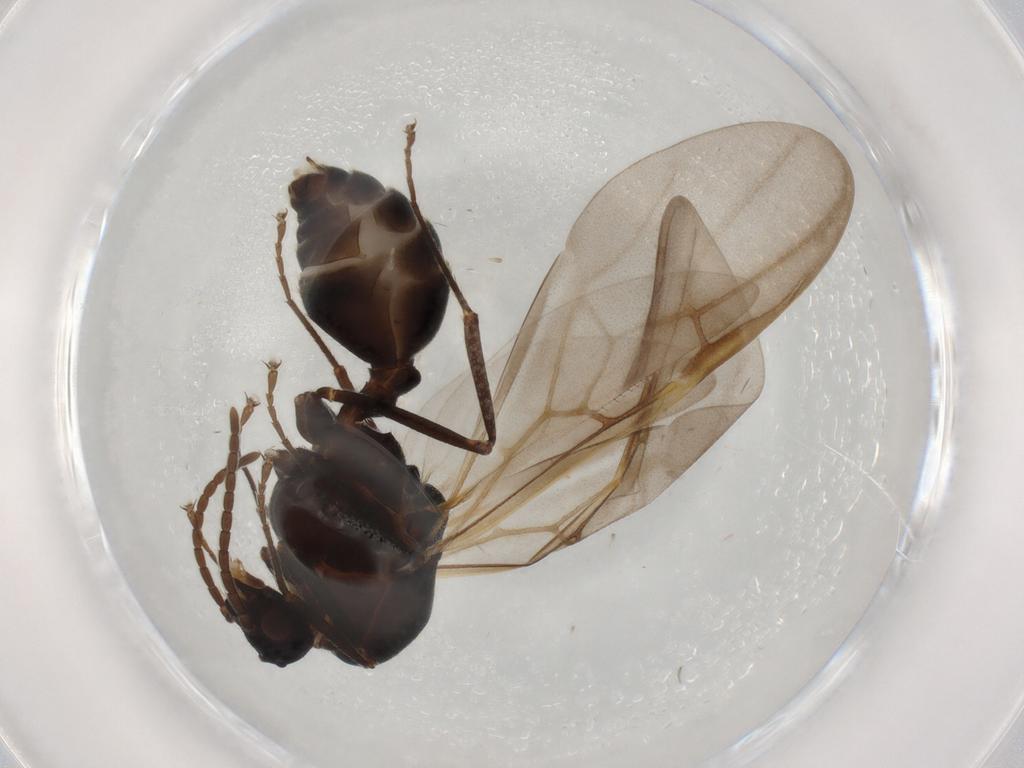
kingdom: Animalia
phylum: Arthropoda
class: Insecta
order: Hymenoptera
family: Formicidae
